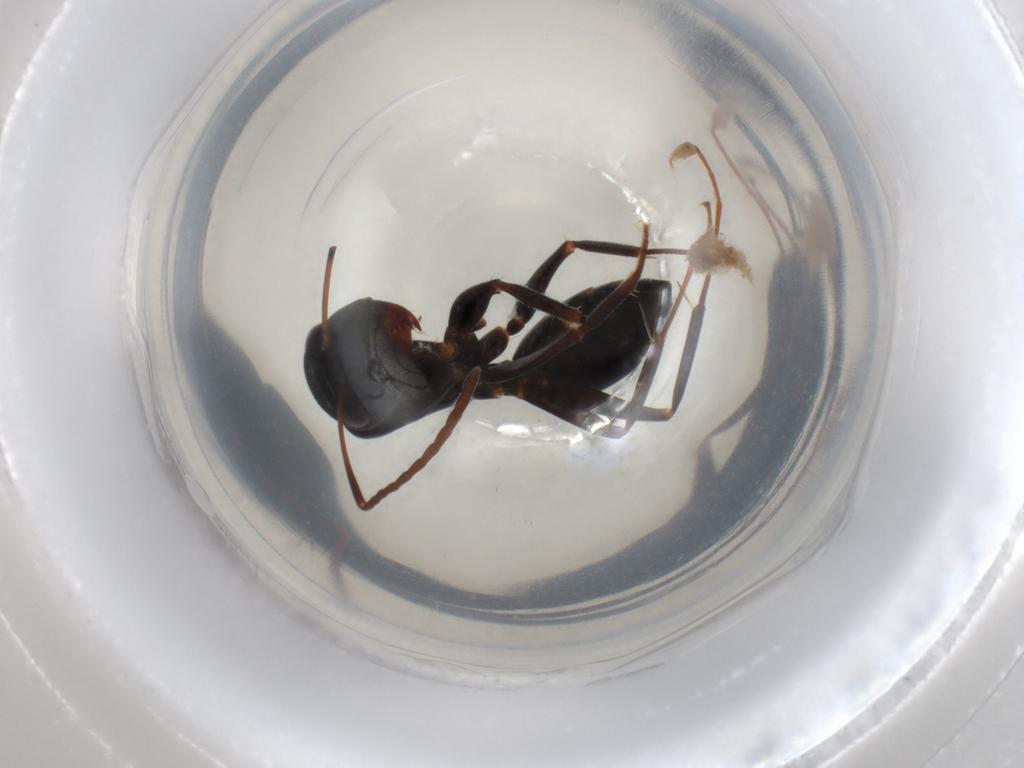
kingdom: Animalia
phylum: Arthropoda
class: Insecta
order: Hymenoptera
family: Formicidae
